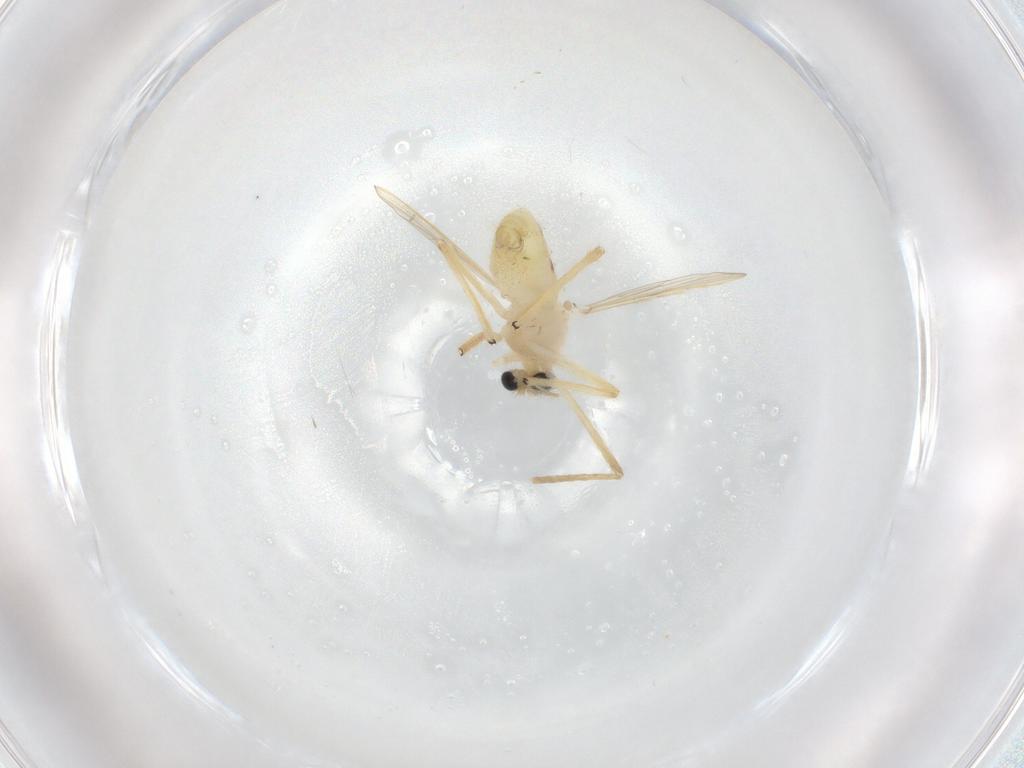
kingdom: Animalia
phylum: Arthropoda
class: Insecta
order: Diptera
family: Chironomidae
